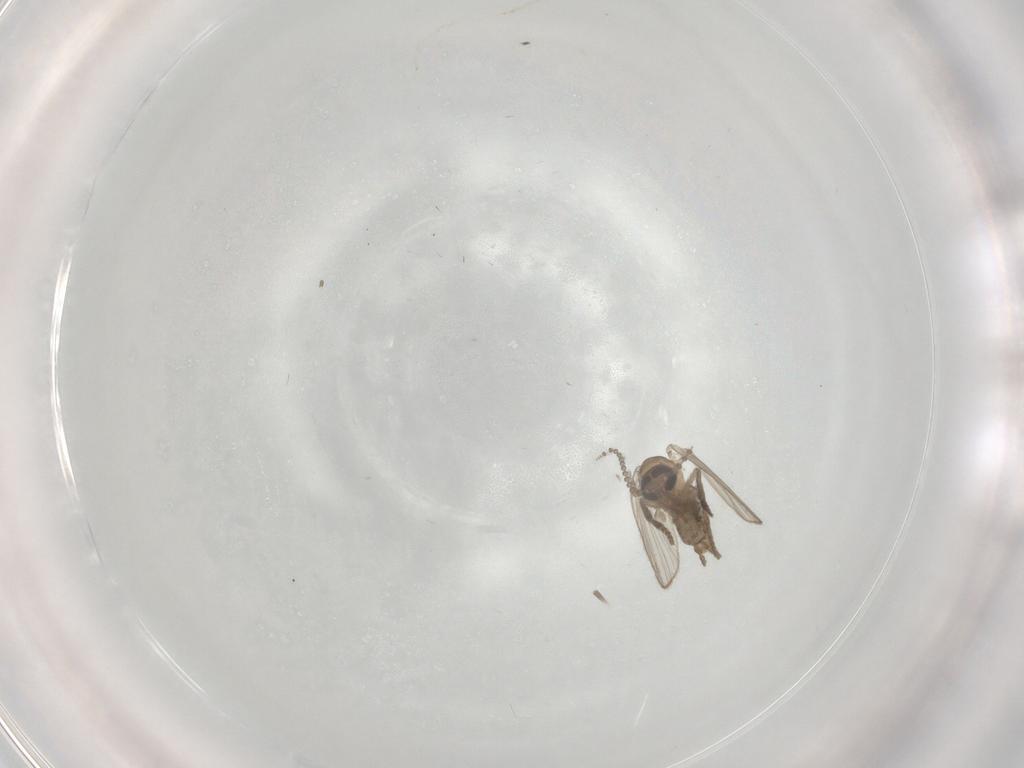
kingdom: Animalia
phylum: Arthropoda
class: Insecta
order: Diptera
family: Psychodidae
